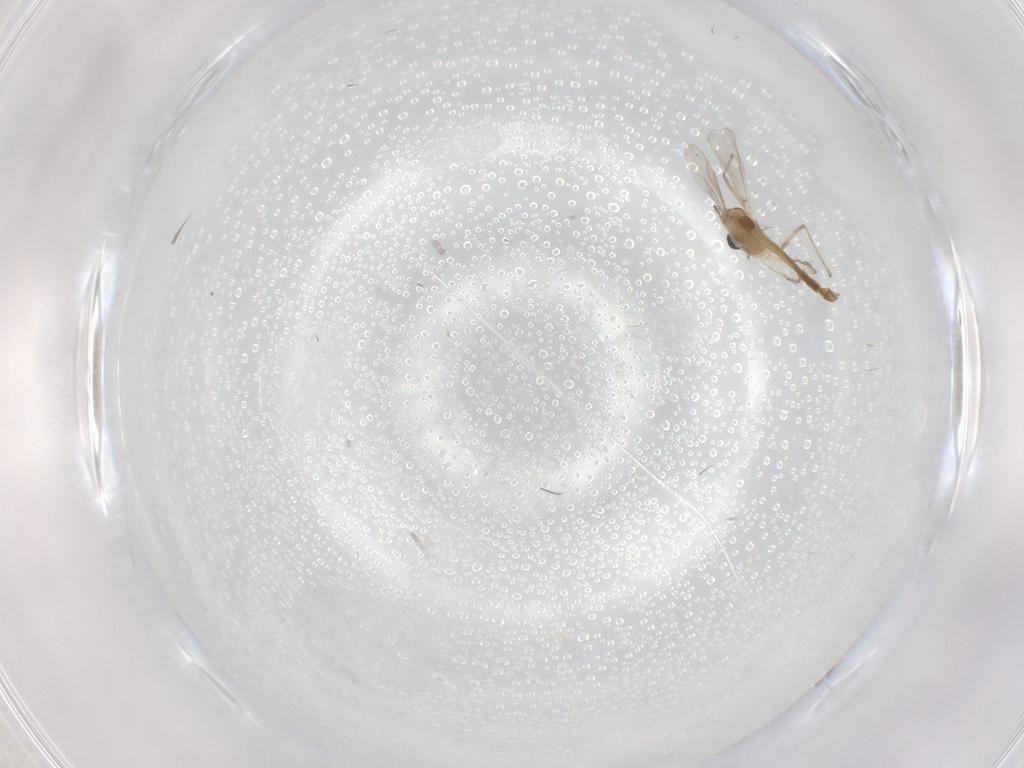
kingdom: Animalia
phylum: Arthropoda
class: Insecta
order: Diptera
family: Chironomidae
